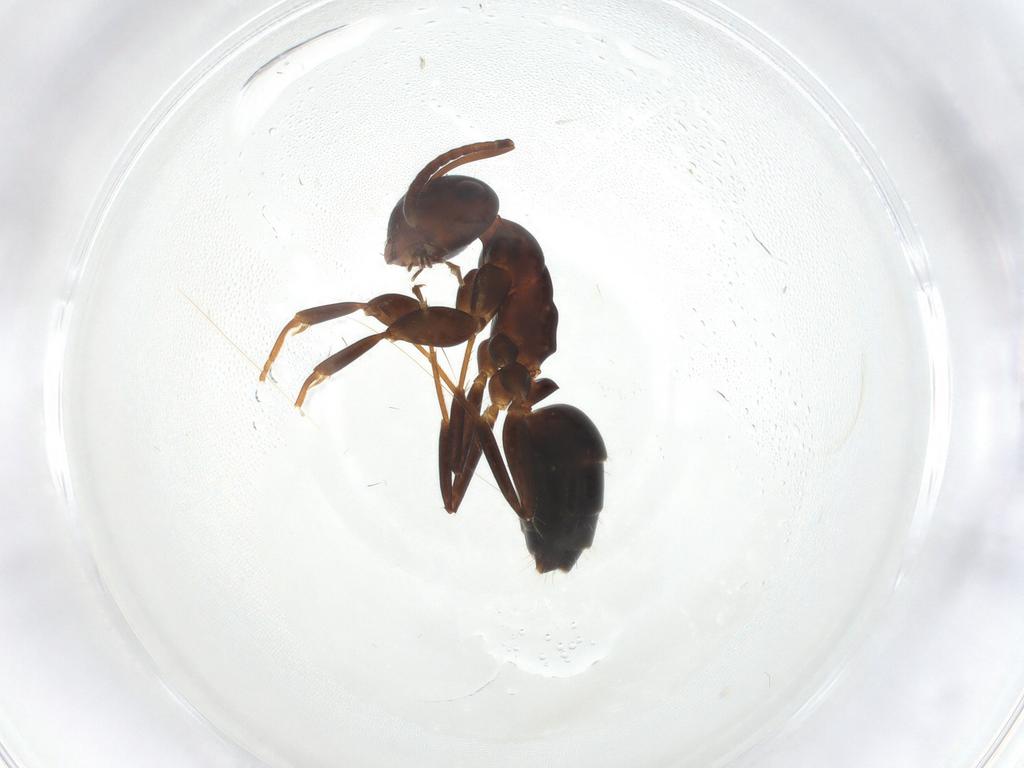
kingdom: Animalia
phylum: Arthropoda
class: Insecta
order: Hymenoptera
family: Formicidae
